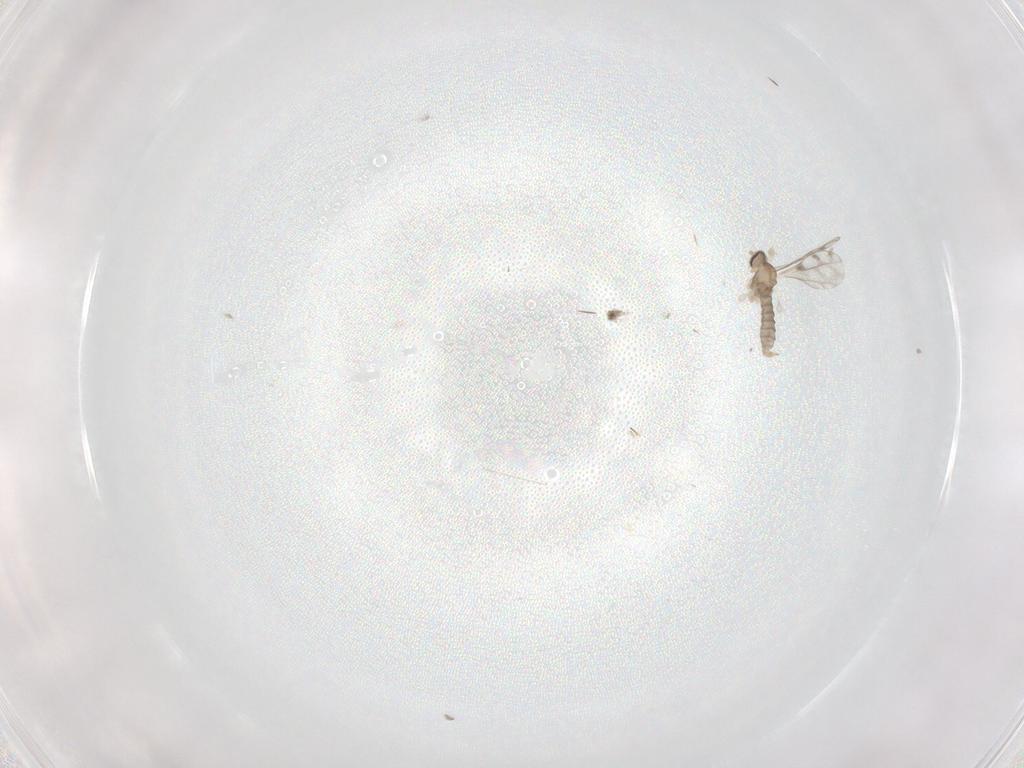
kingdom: Animalia
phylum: Arthropoda
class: Insecta
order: Diptera
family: Cecidomyiidae
